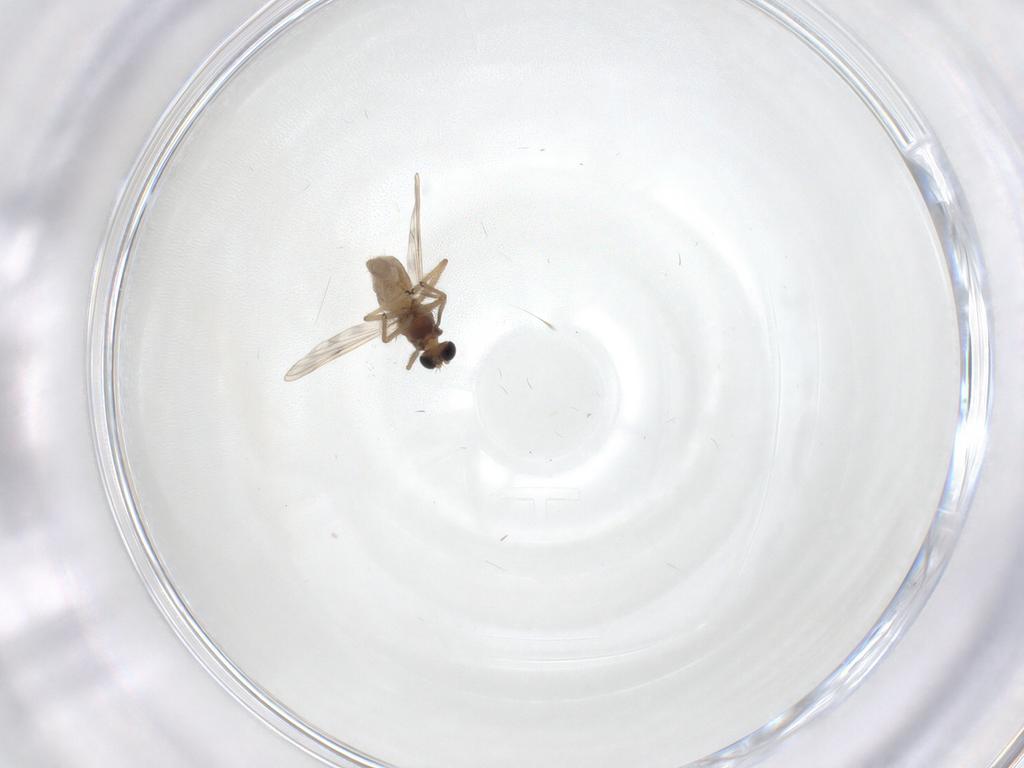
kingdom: Animalia
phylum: Arthropoda
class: Insecta
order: Diptera
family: Chironomidae
